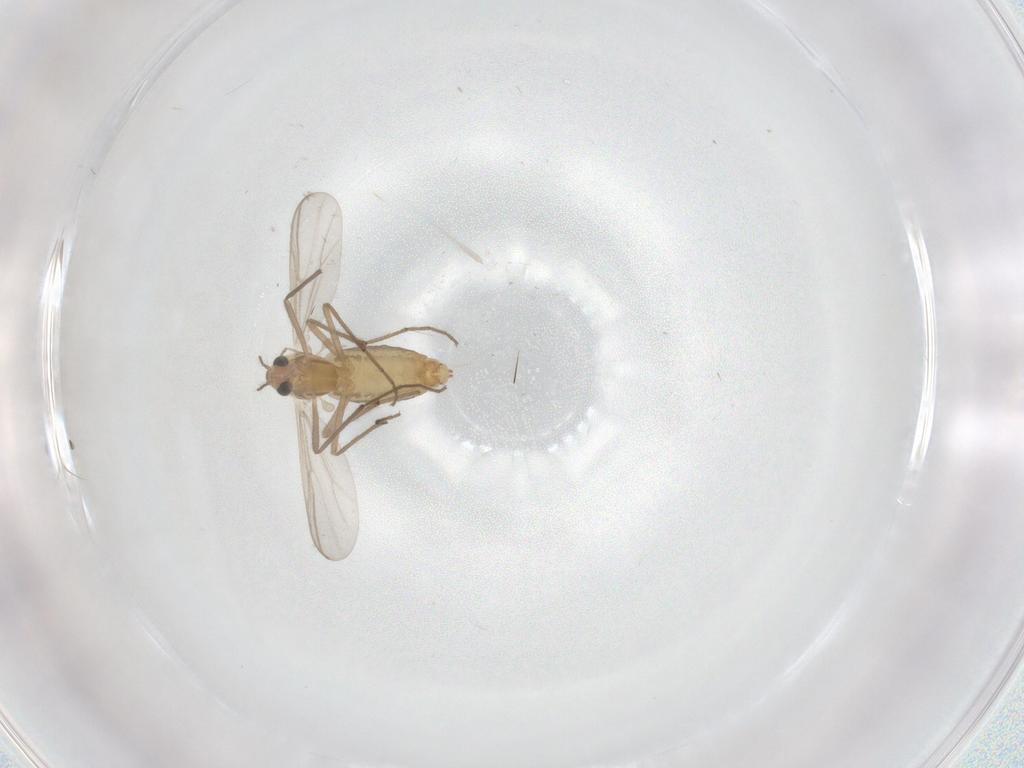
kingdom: Animalia
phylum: Arthropoda
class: Insecta
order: Diptera
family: Chironomidae
